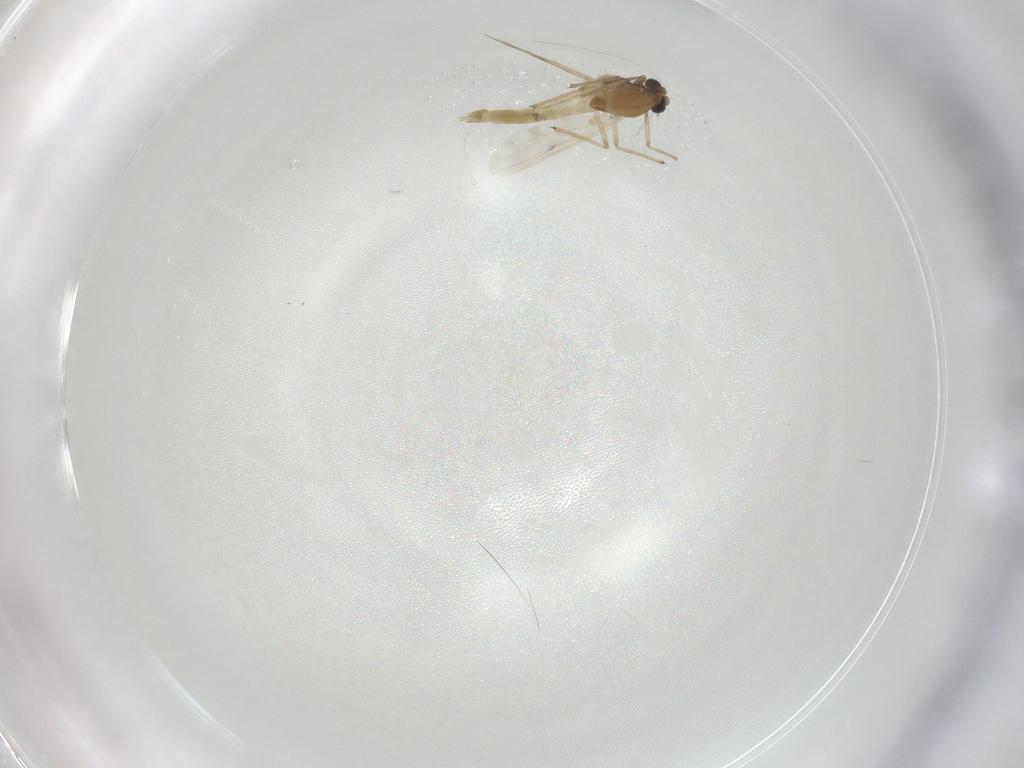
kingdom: Animalia
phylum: Arthropoda
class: Insecta
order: Diptera
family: Chironomidae
